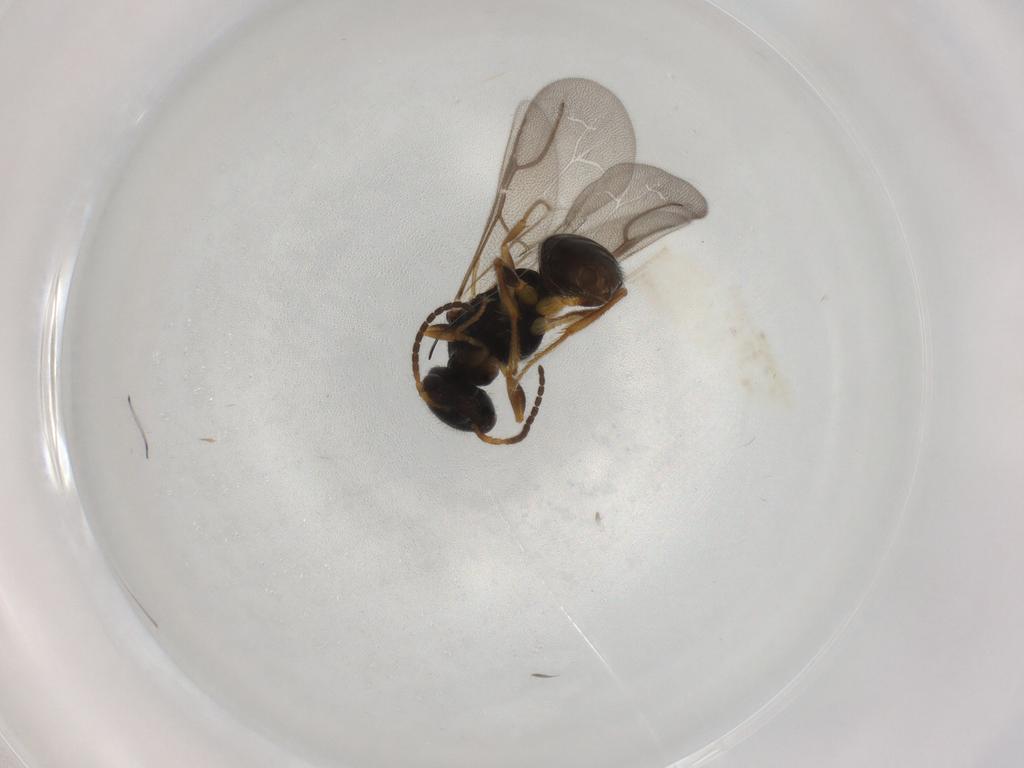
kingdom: Animalia
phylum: Arthropoda
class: Insecta
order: Hymenoptera
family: Bethylidae
